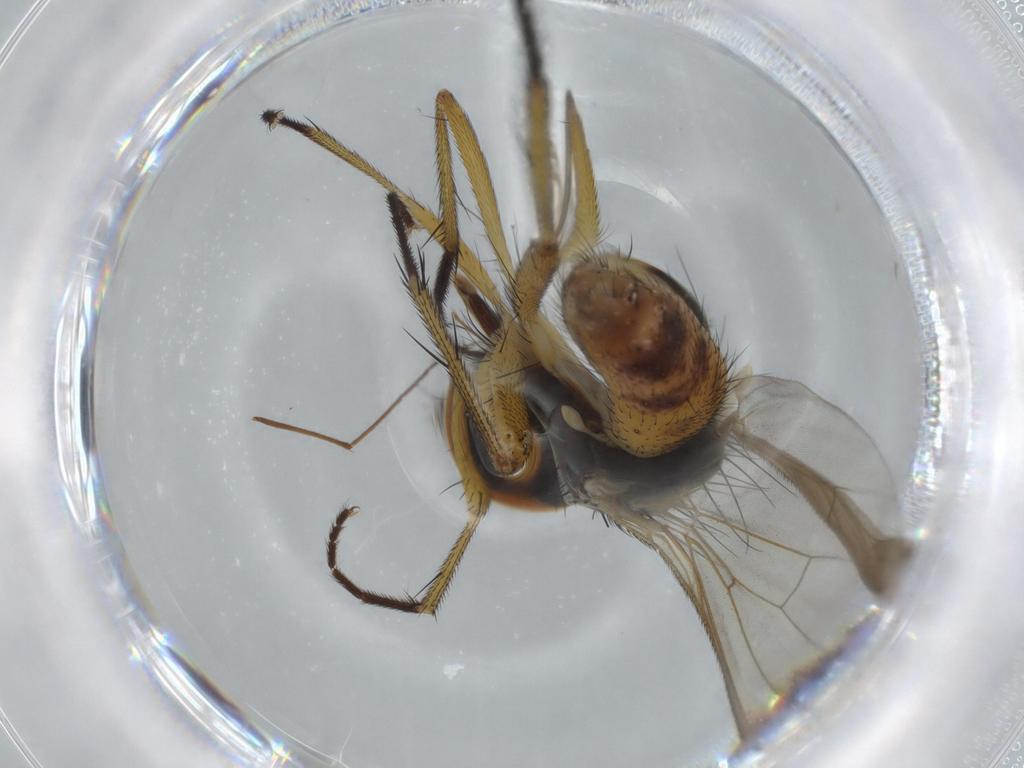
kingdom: Animalia
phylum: Arthropoda
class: Insecta
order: Diptera
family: Muscidae
